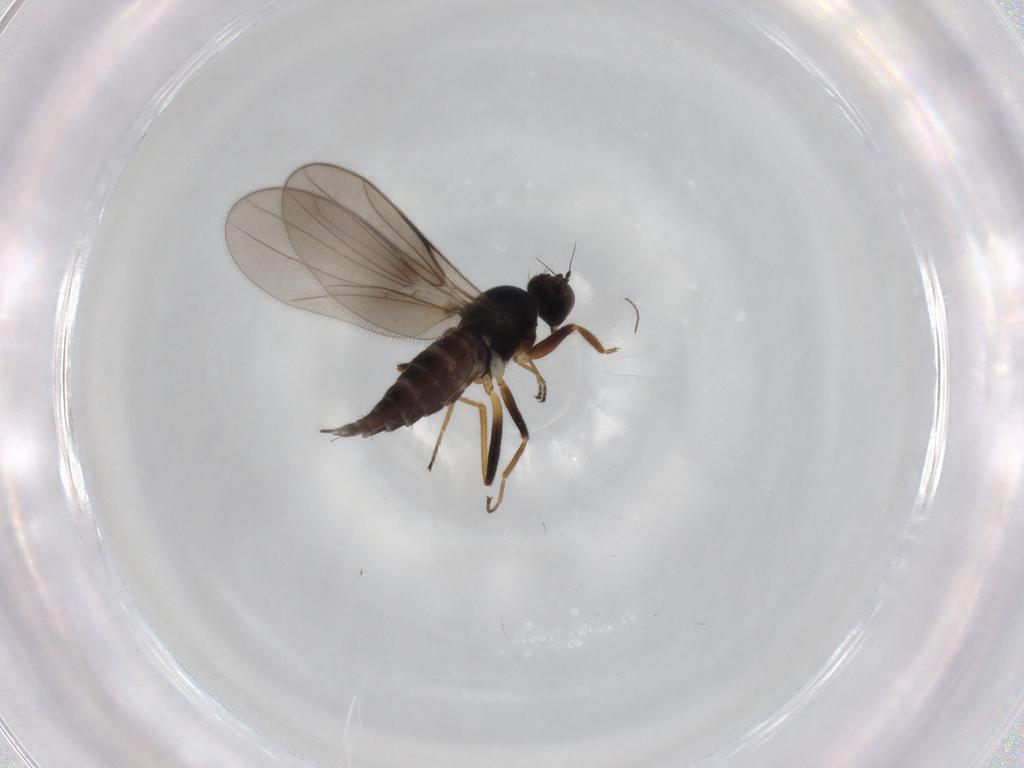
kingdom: Animalia
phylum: Arthropoda
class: Insecta
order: Diptera
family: Hybotidae
